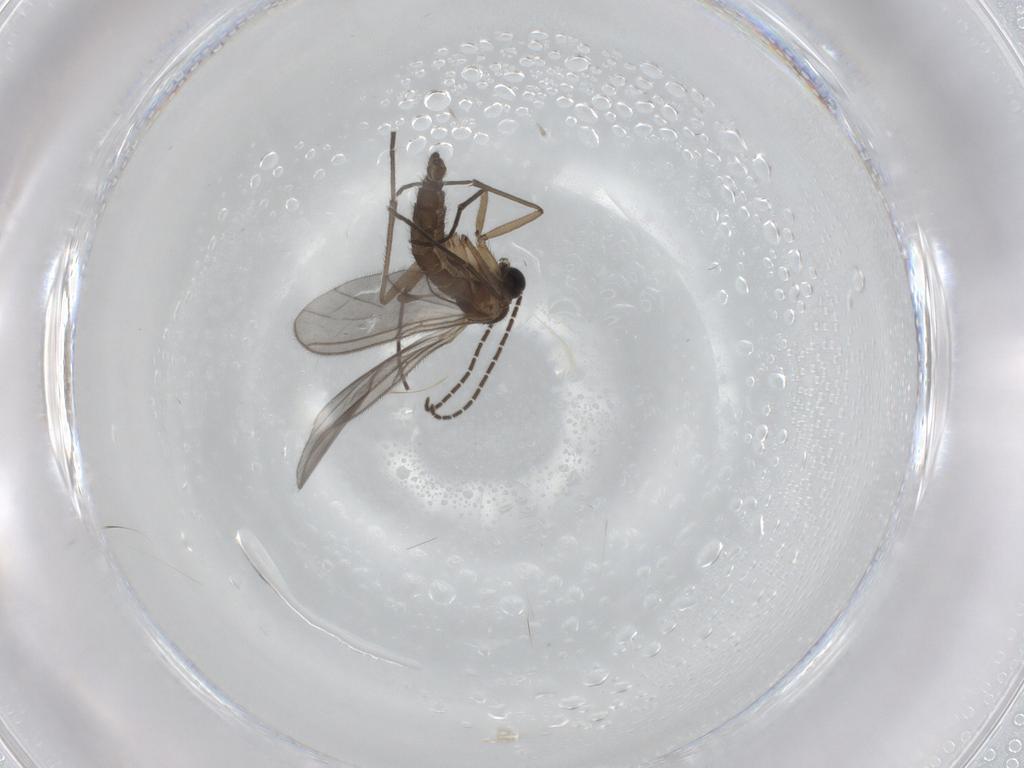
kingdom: Animalia
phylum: Arthropoda
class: Insecta
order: Diptera
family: Sciaridae
